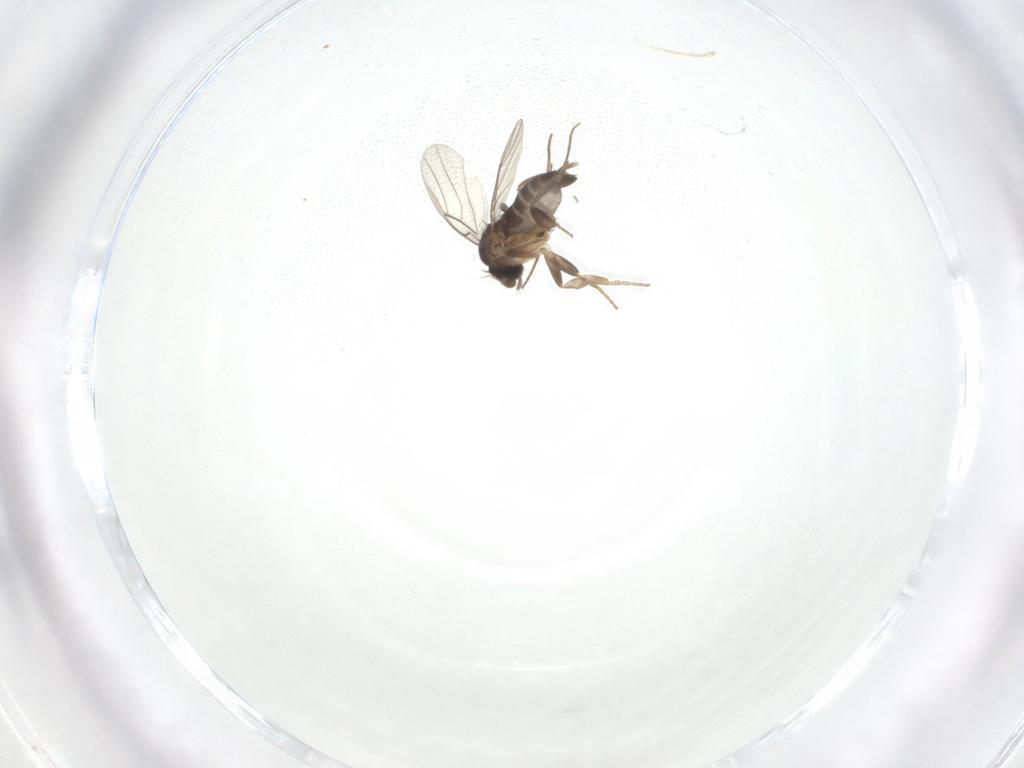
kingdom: Animalia
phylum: Arthropoda
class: Insecta
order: Diptera
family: Phoridae
